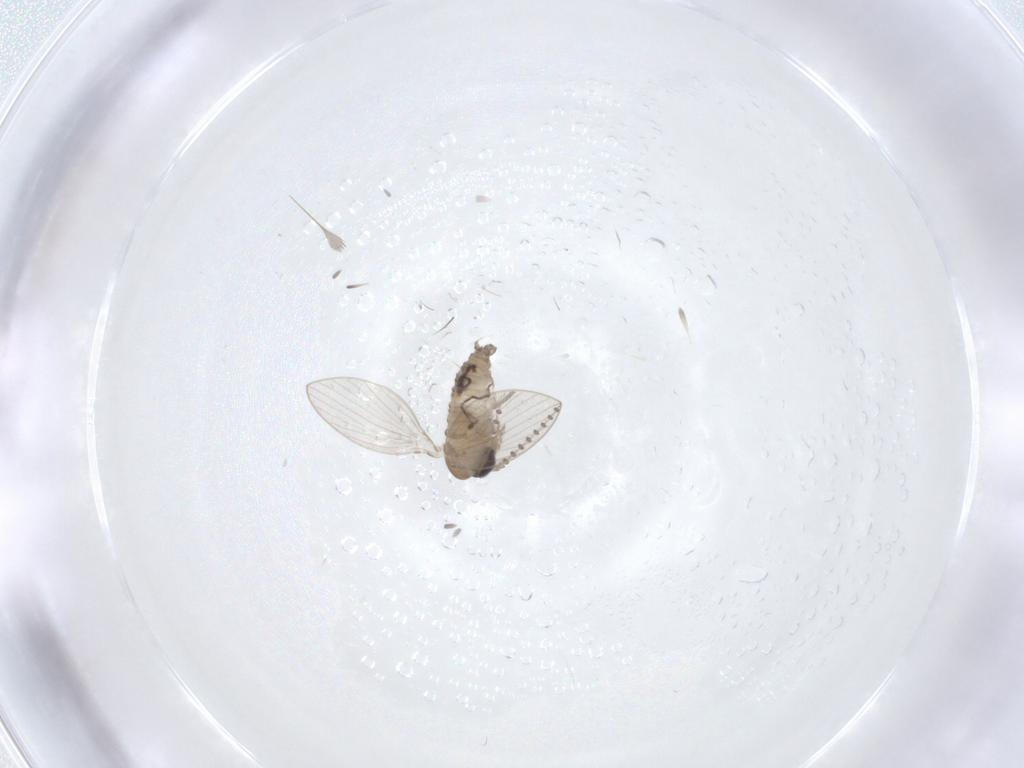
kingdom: Animalia
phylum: Arthropoda
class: Insecta
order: Diptera
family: Psychodidae
